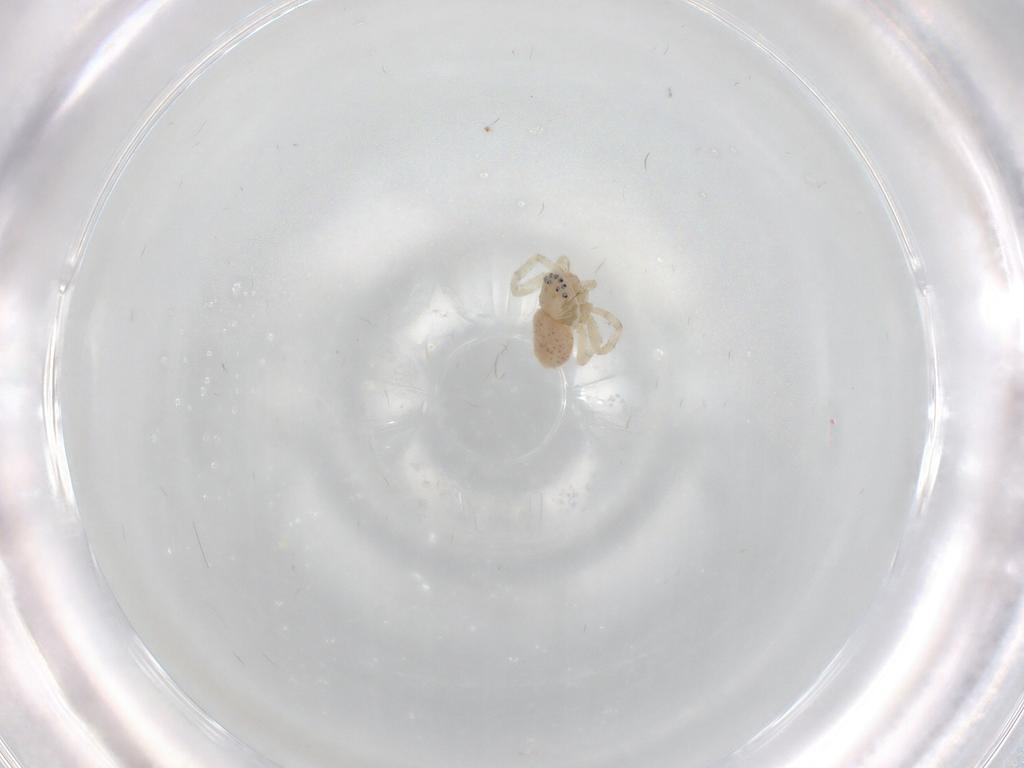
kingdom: Animalia
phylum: Arthropoda
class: Arachnida
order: Araneae
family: Philodromidae
